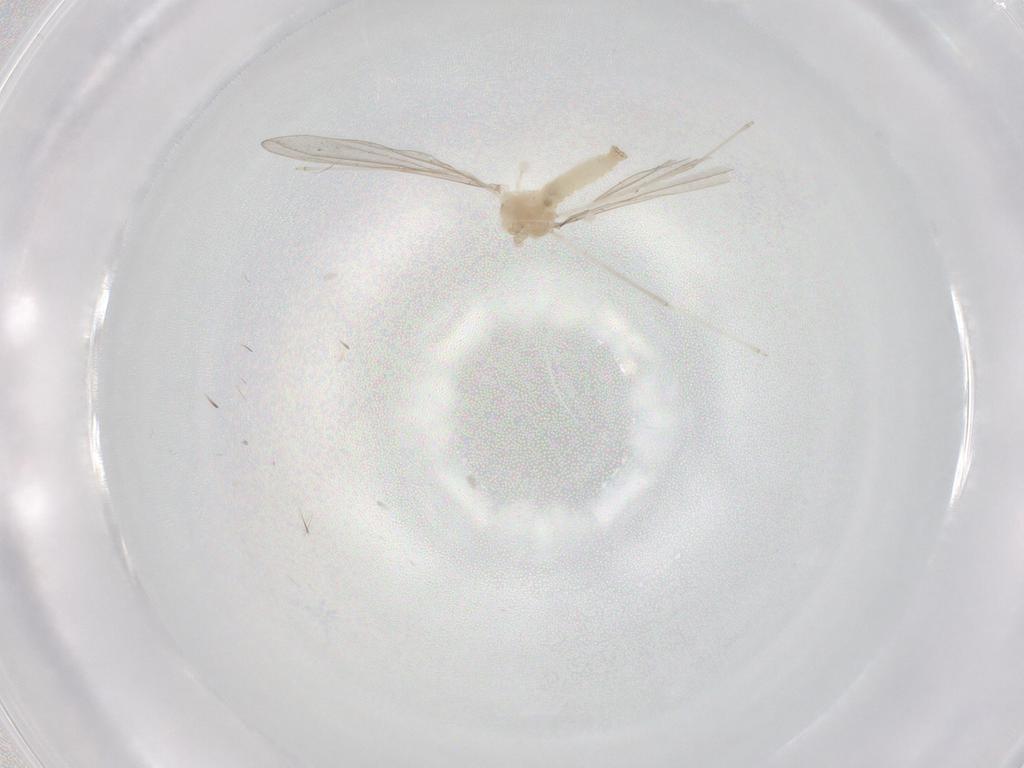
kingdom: Animalia
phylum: Arthropoda
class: Insecta
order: Diptera
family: Cecidomyiidae
